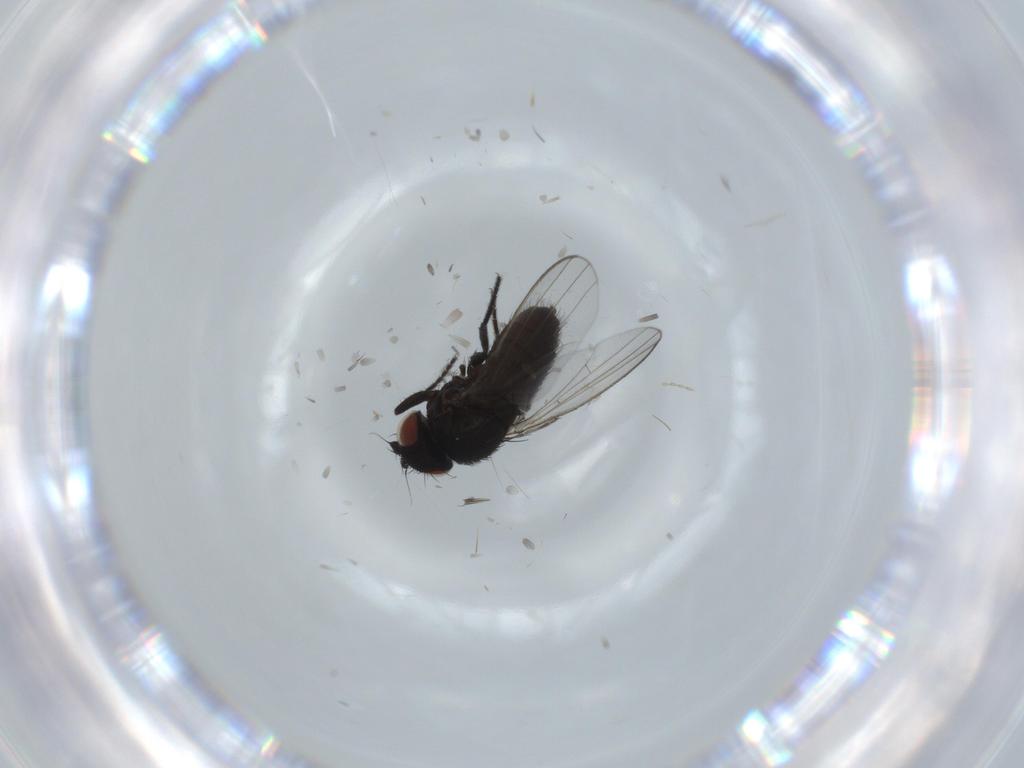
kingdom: Animalia
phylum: Arthropoda
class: Insecta
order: Diptera
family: Milichiidae
